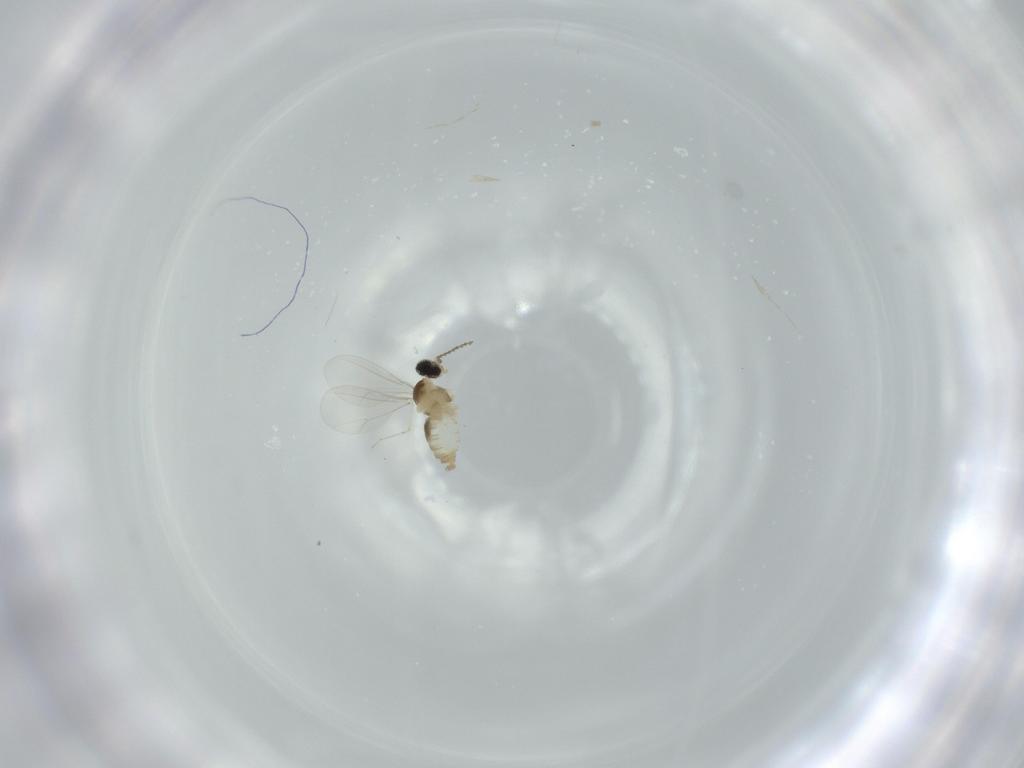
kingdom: Animalia
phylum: Arthropoda
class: Insecta
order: Diptera
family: Cecidomyiidae
